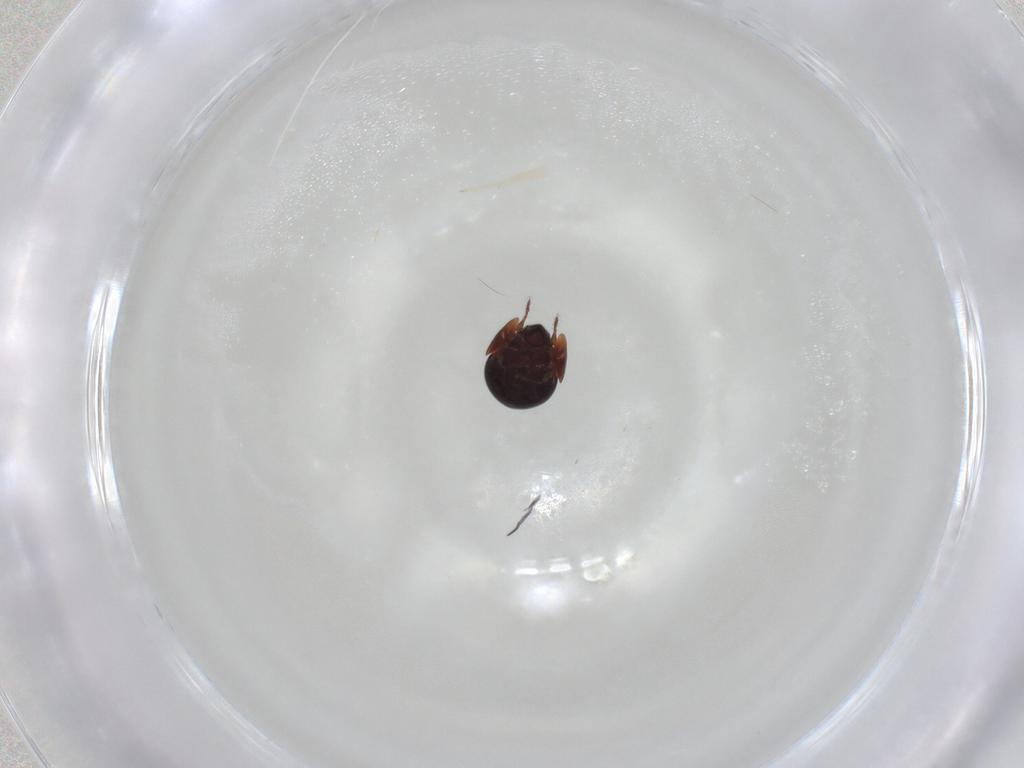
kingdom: Animalia
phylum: Arthropoda
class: Arachnida
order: Sarcoptiformes
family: Galumnidae
